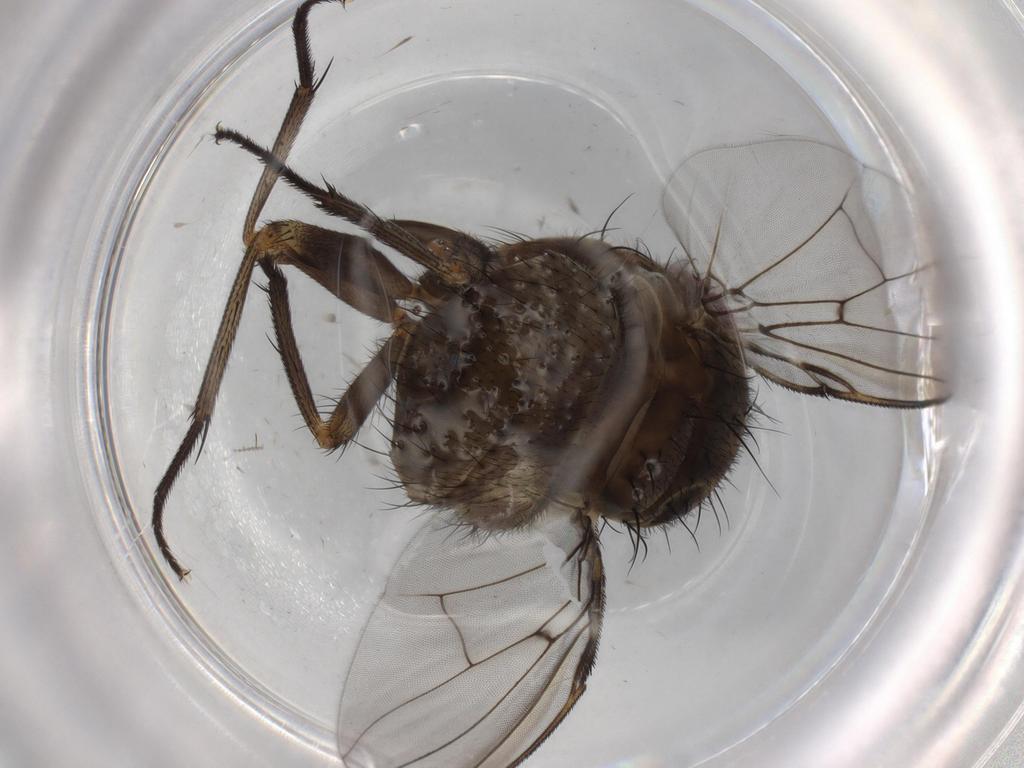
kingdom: Animalia
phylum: Arthropoda
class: Insecta
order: Diptera
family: Muscidae
